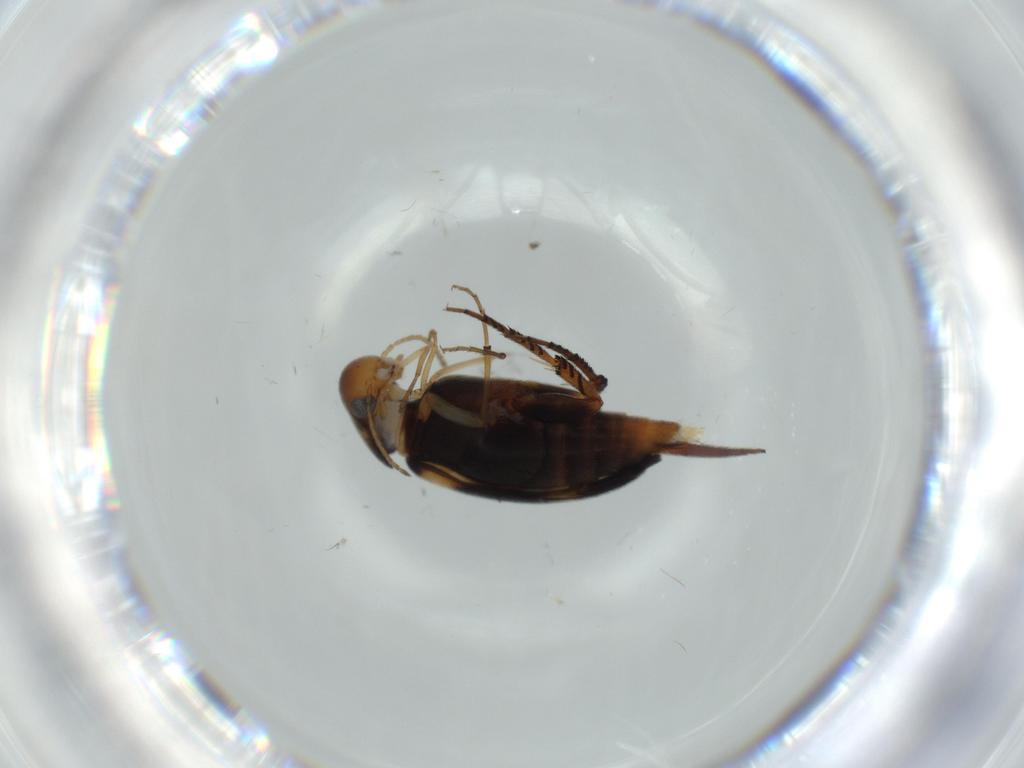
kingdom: Animalia
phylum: Arthropoda
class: Insecta
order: Coleoptera
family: Mordellidae
